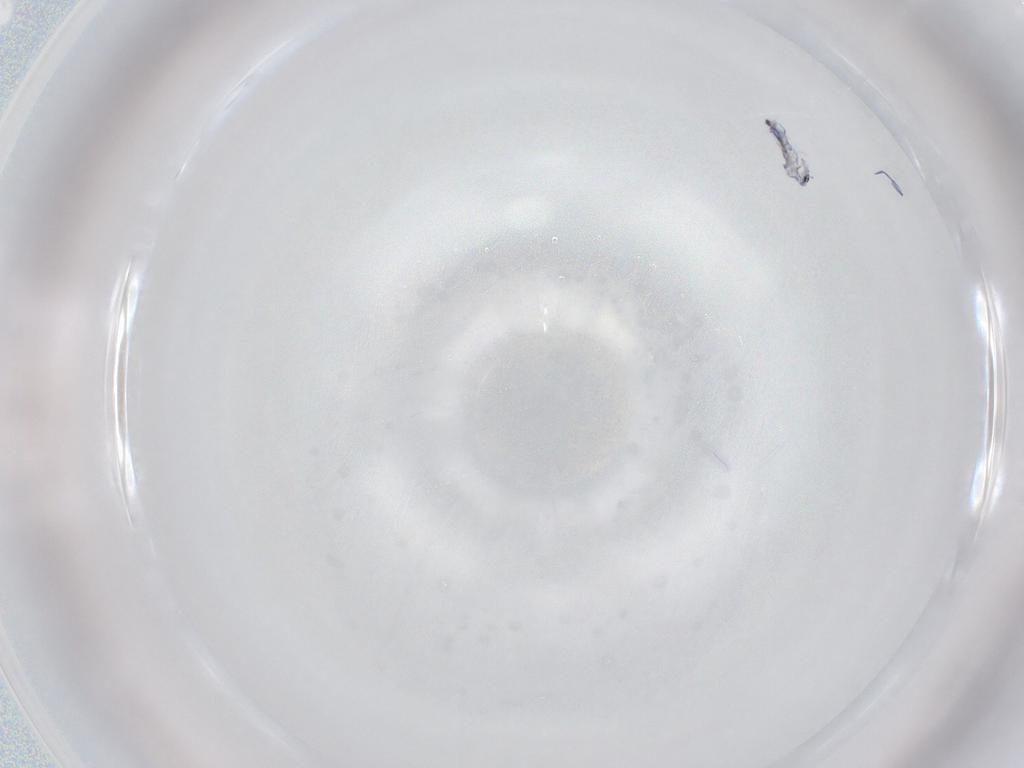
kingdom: Animalia
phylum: Arthropoda
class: Collembola
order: Entomobryomorpha
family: Entomobryidae
